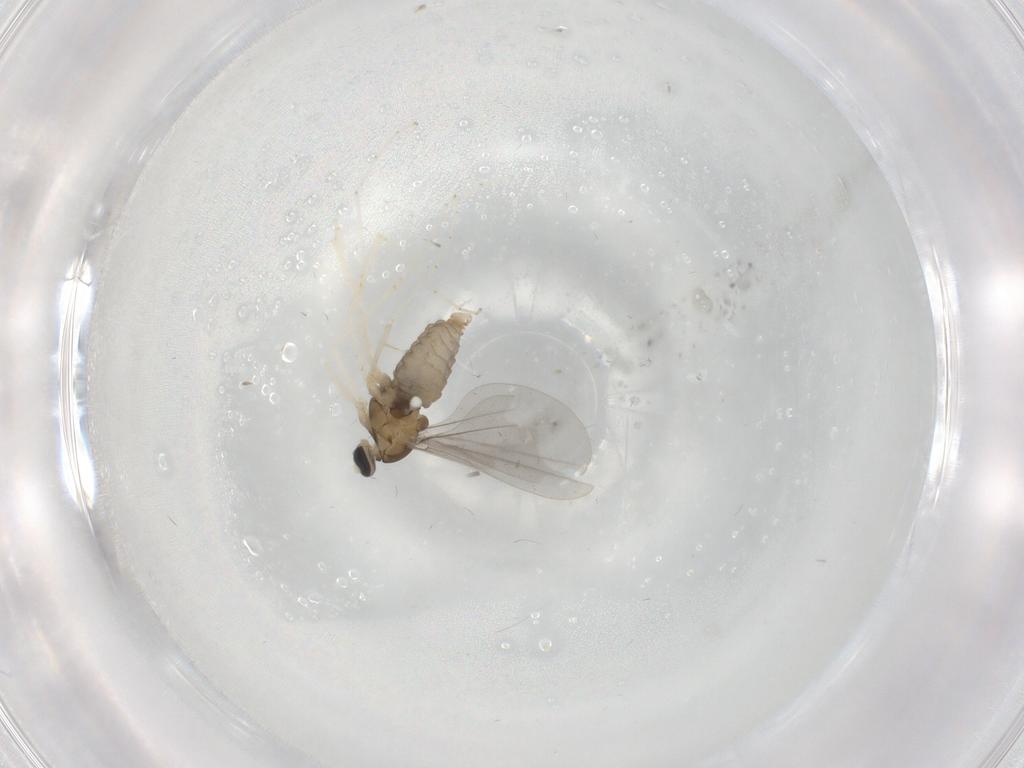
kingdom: Animalia
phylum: Arthropoda
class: Insecta
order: Diptera
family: Cecidomyiidae
